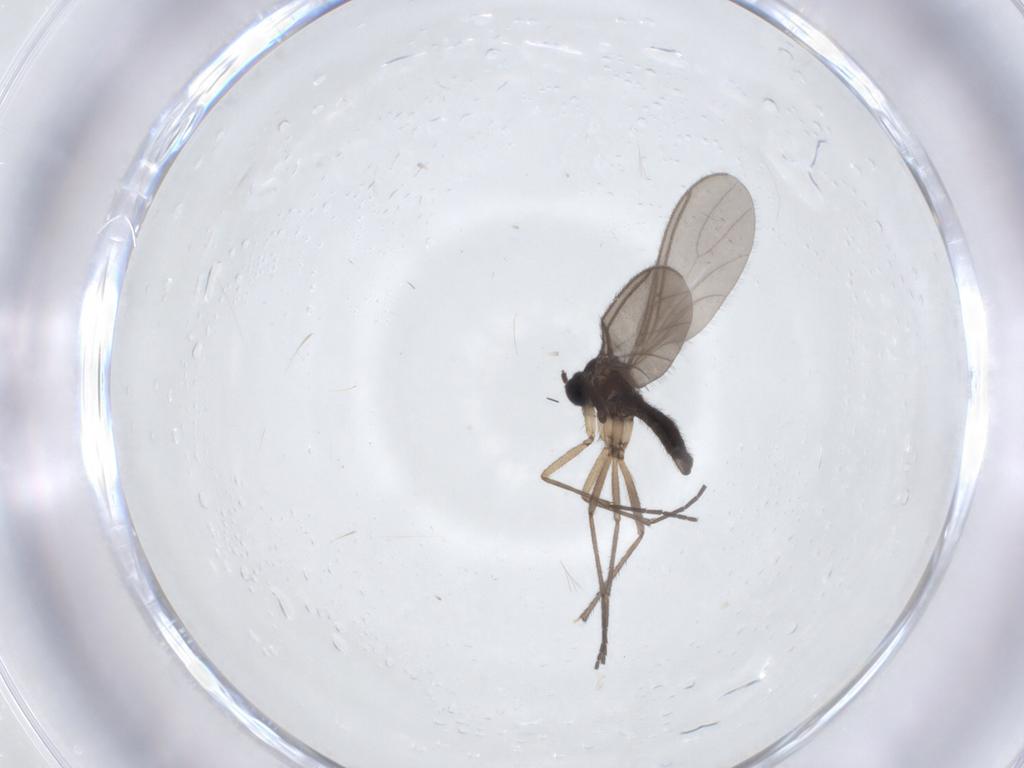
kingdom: Animalia
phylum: Arthropoda
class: Insecta
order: Diptera
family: Sciaridae
